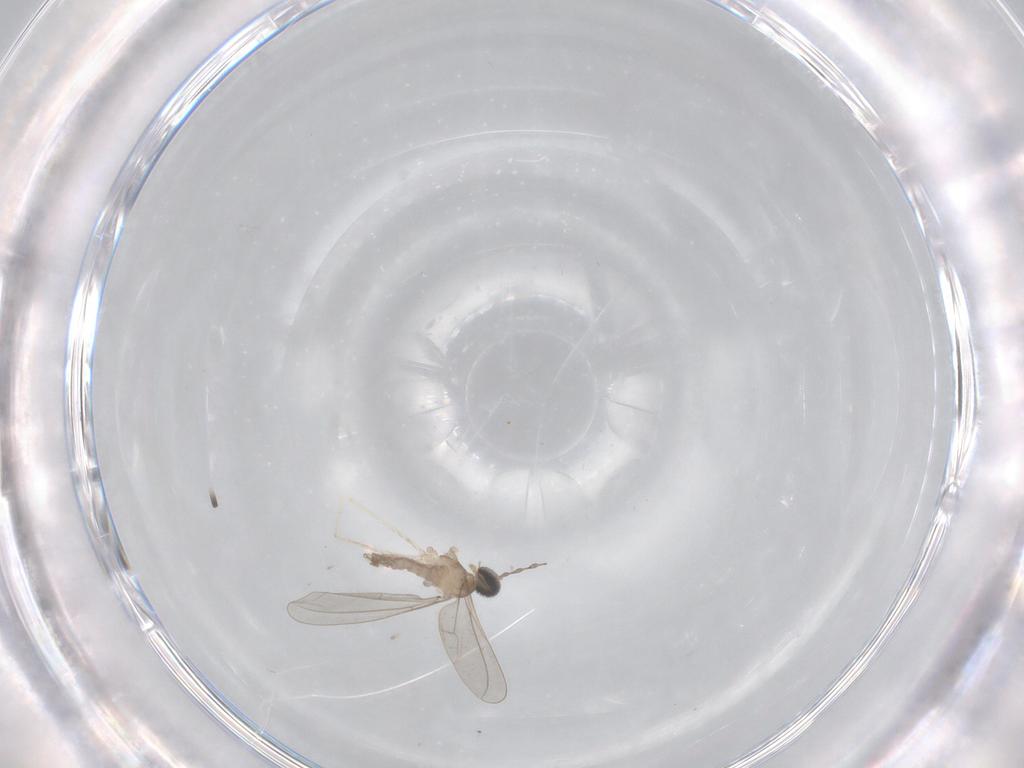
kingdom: Animalia
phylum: Arthropoda
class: Insecta
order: Diptera
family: Cecidomyiidae
